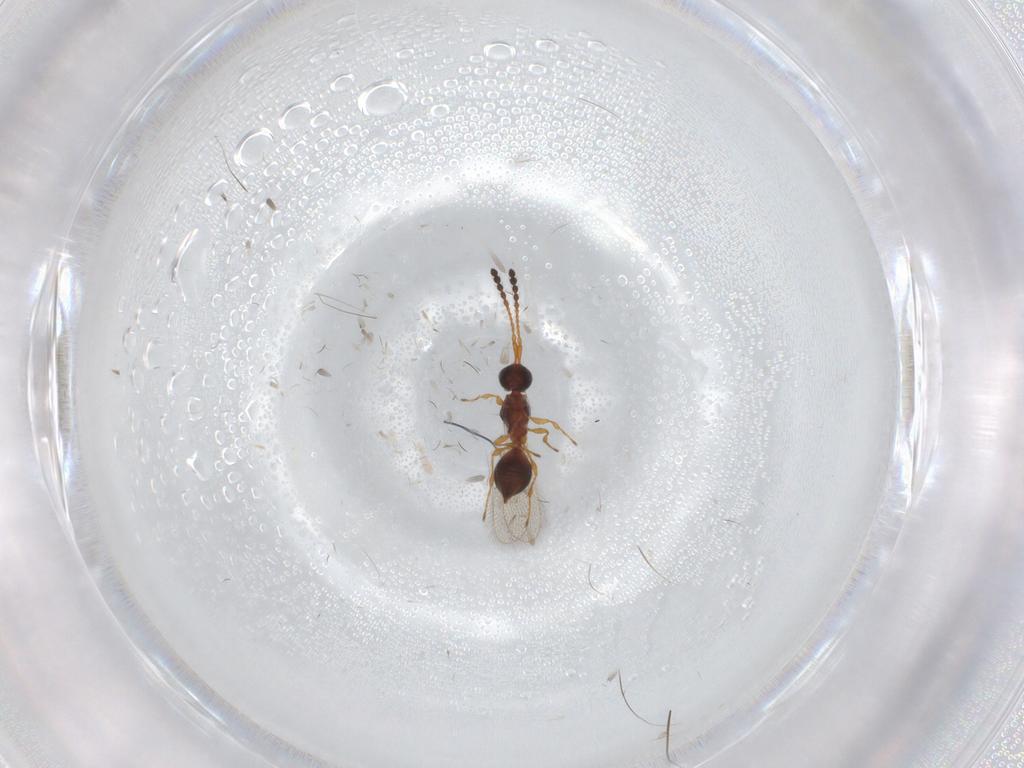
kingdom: Animalia
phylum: Arthropoda
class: Insecta
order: Hymenoptera
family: Diapriidae
